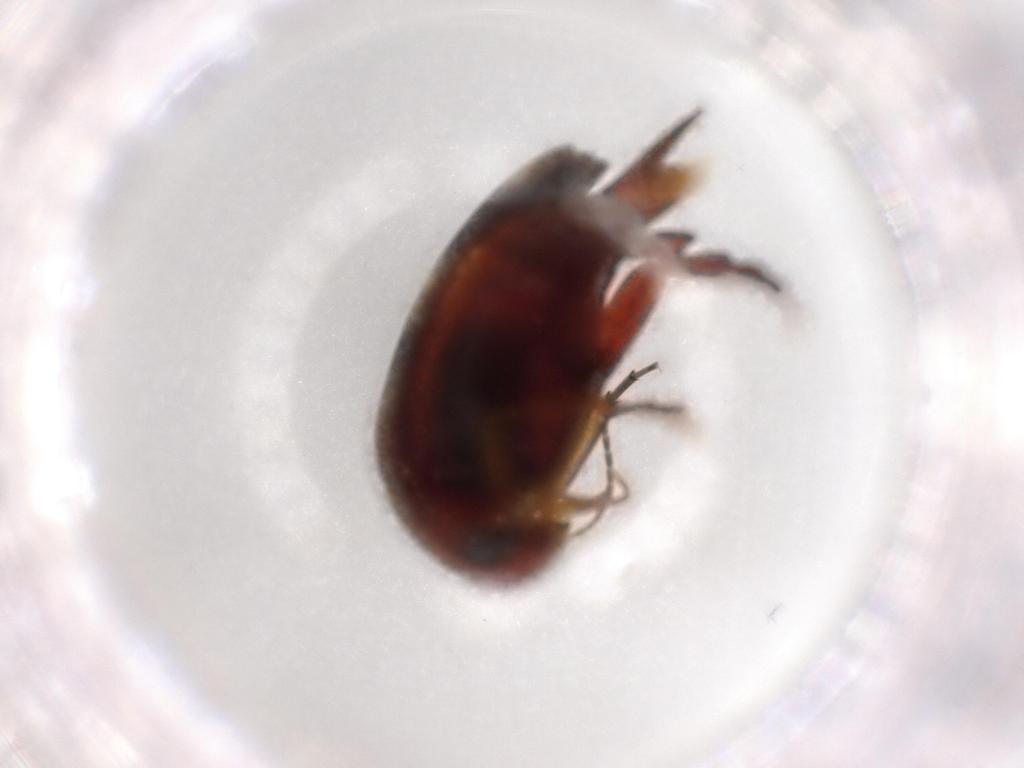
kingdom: Animalia
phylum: Arthropoda
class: Insecta
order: Coleoptera
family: Chrysomelidae
